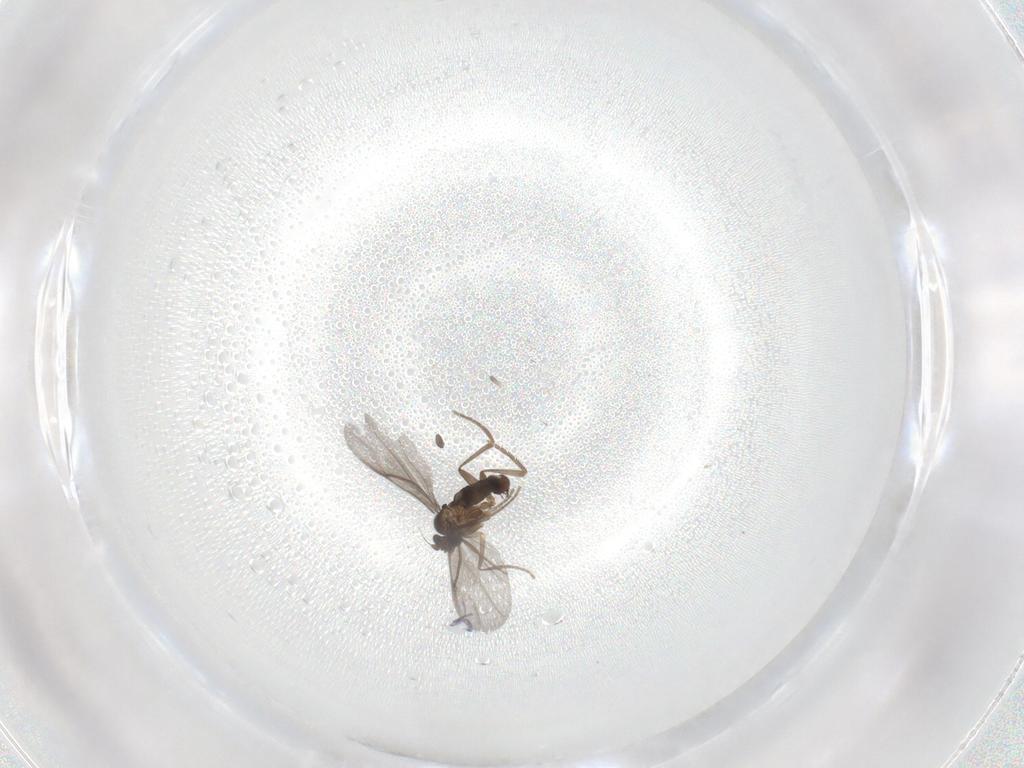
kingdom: Animalia
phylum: Arthropoda
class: Insecta
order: Diptera
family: Phoridae
